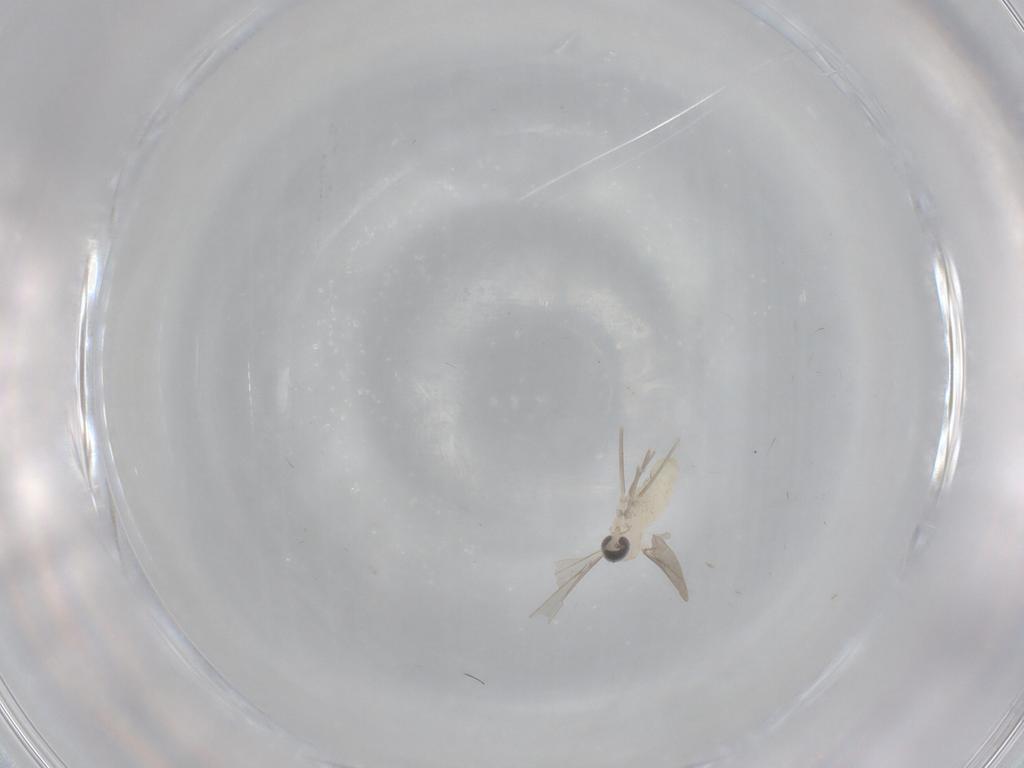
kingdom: Animalia
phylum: Arthropoda
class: Insecta
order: Diptera
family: Cecidomyiidae
